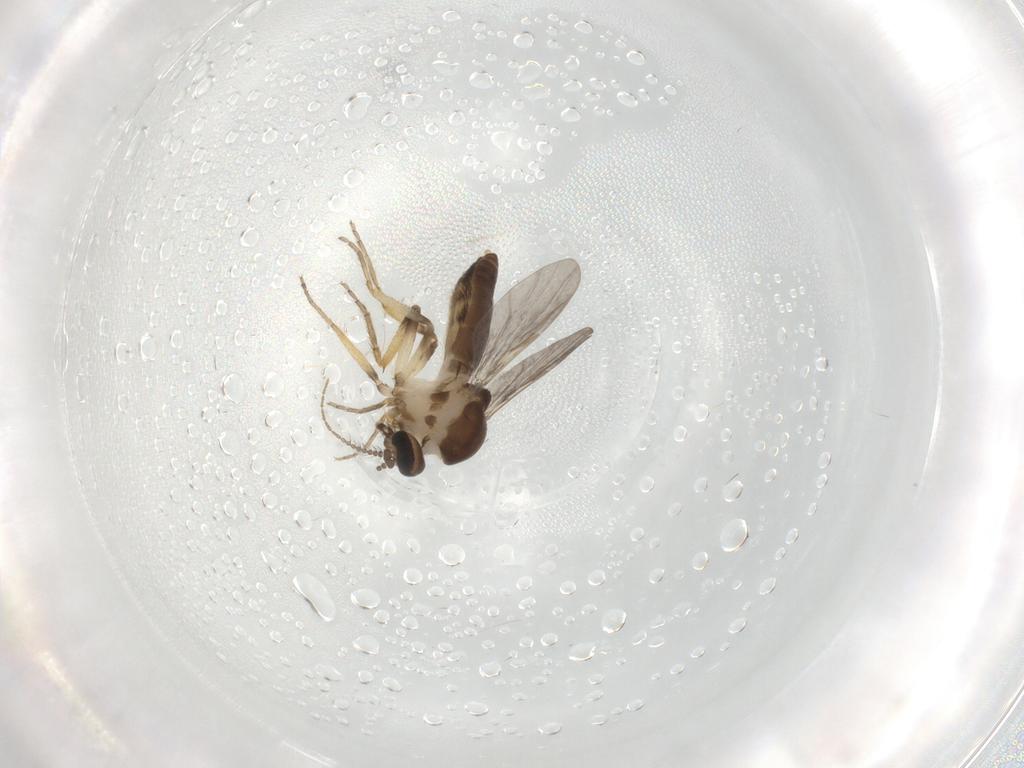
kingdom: Animalia
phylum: Arthropoda
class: Insecta
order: Diptera
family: Ceratopogonidae
